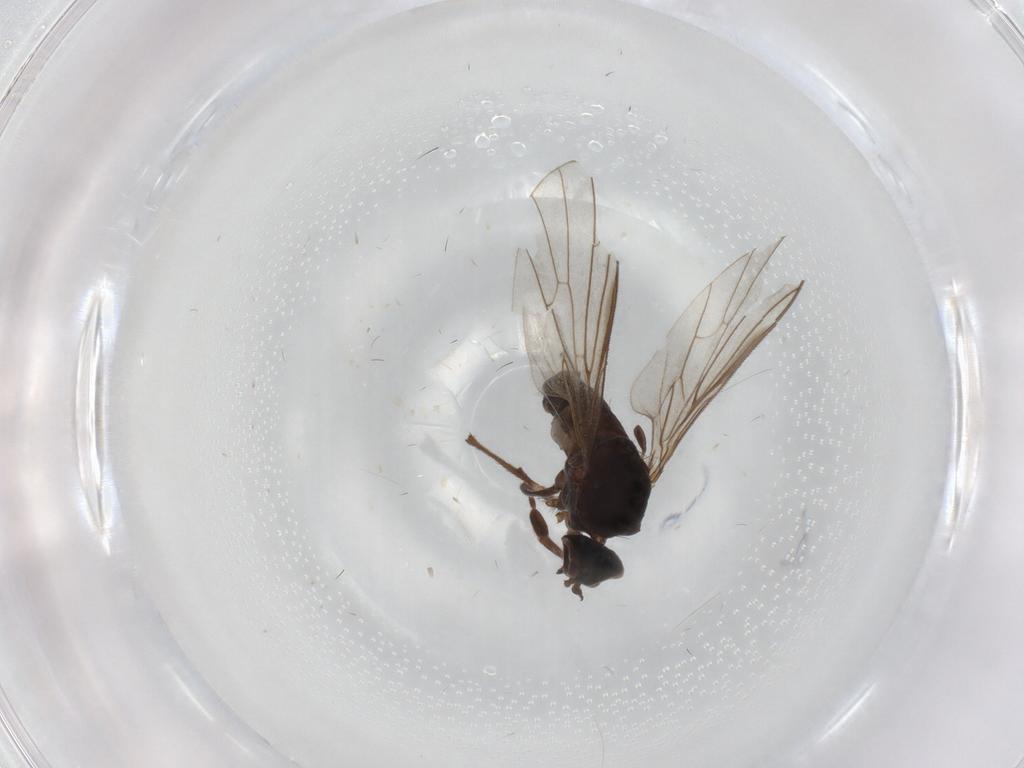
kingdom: Animalia
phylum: Arthropoda
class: Insecta
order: Diptera
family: Empididae
